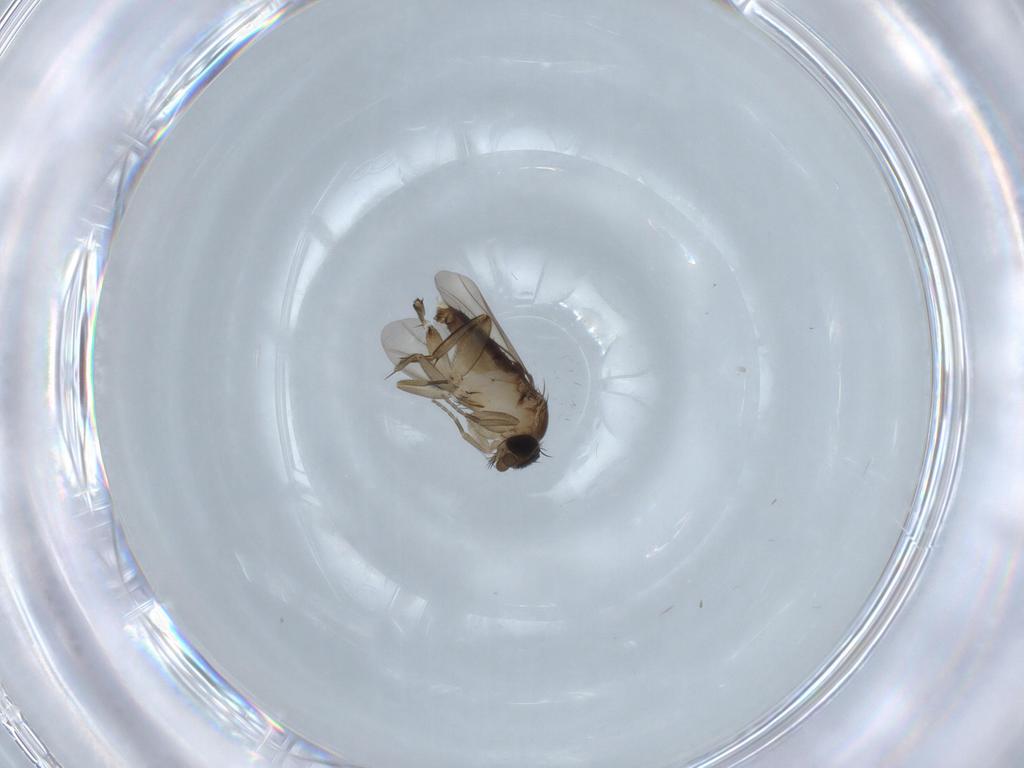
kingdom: Animalia
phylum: Arthropoda
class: Insecta
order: Diptera
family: Phoridae
